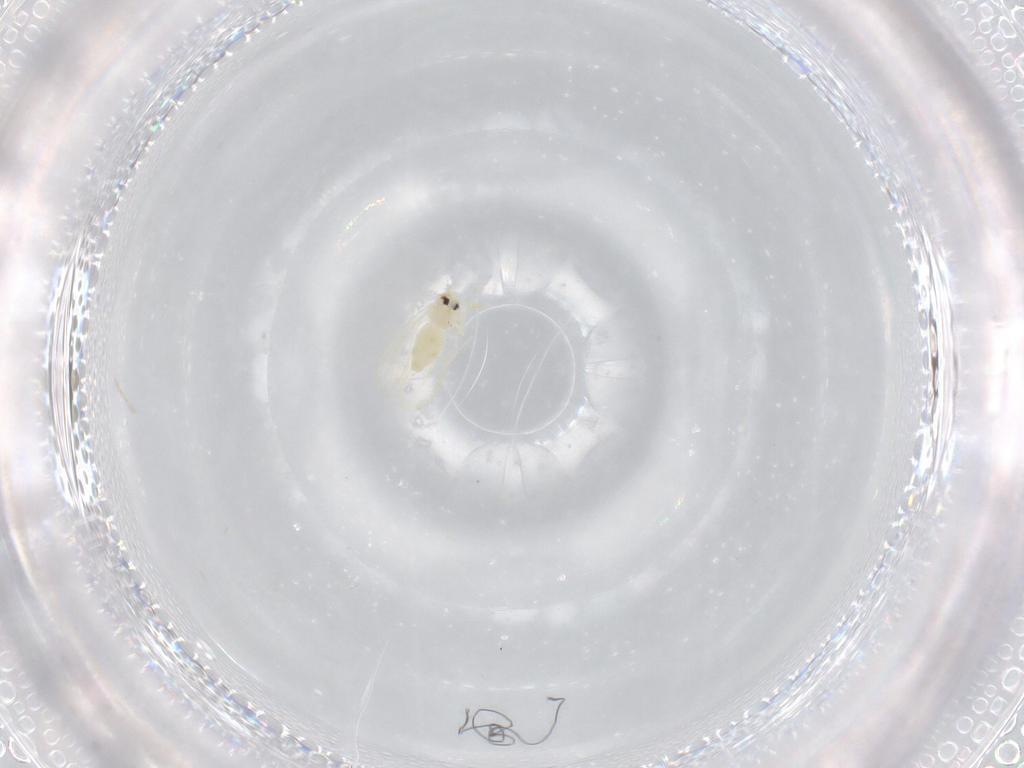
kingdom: Animalia
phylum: Arthropoda
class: Insecta
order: Hemiptera
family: Aleyrodidae
